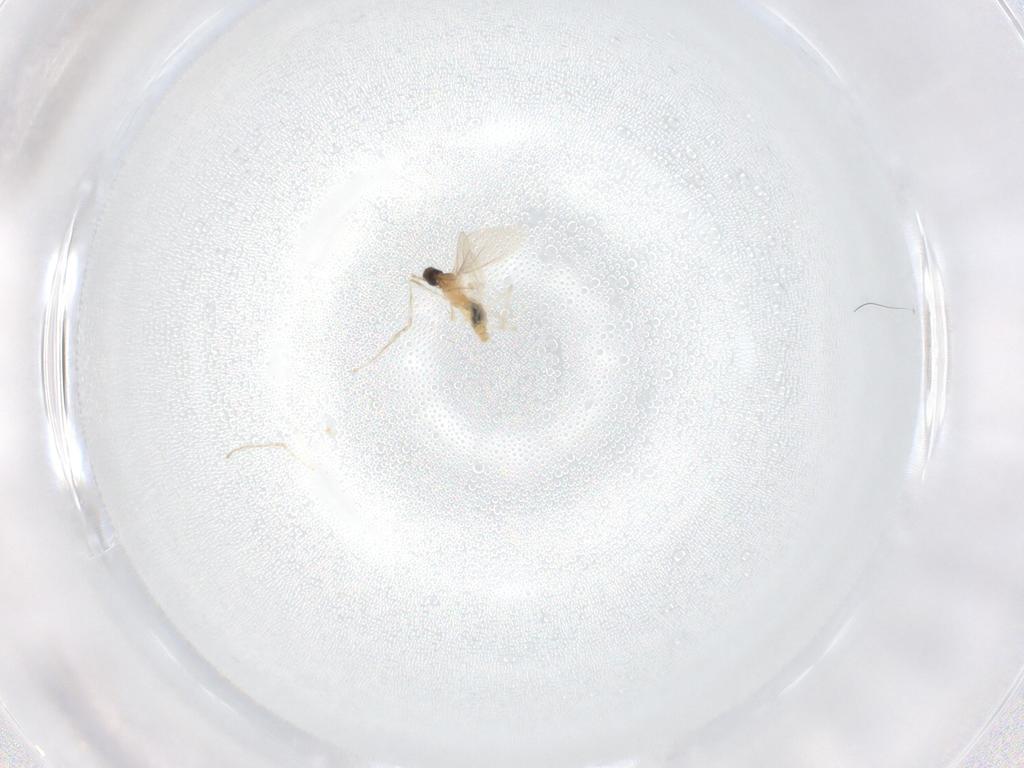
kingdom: Animalia
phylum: Arthropoda
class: Insecta
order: Diptera
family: Cecidomyiidae
